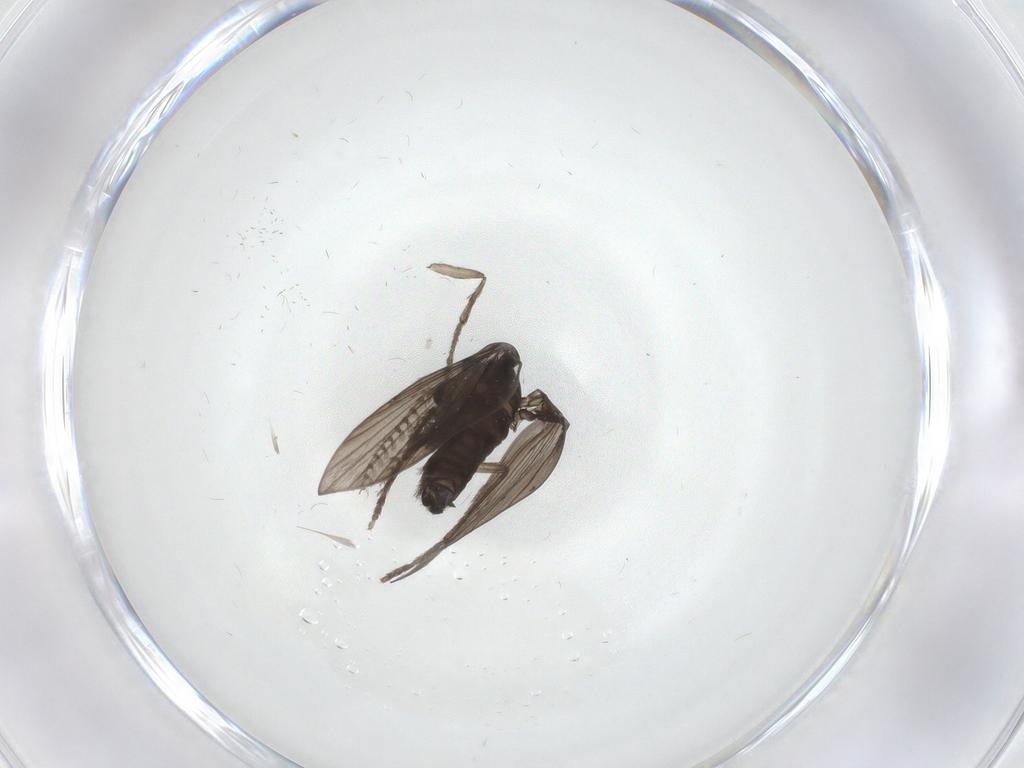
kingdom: Animalia
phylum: Arthropoda
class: Insecta
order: Diptera
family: Psychodidae
